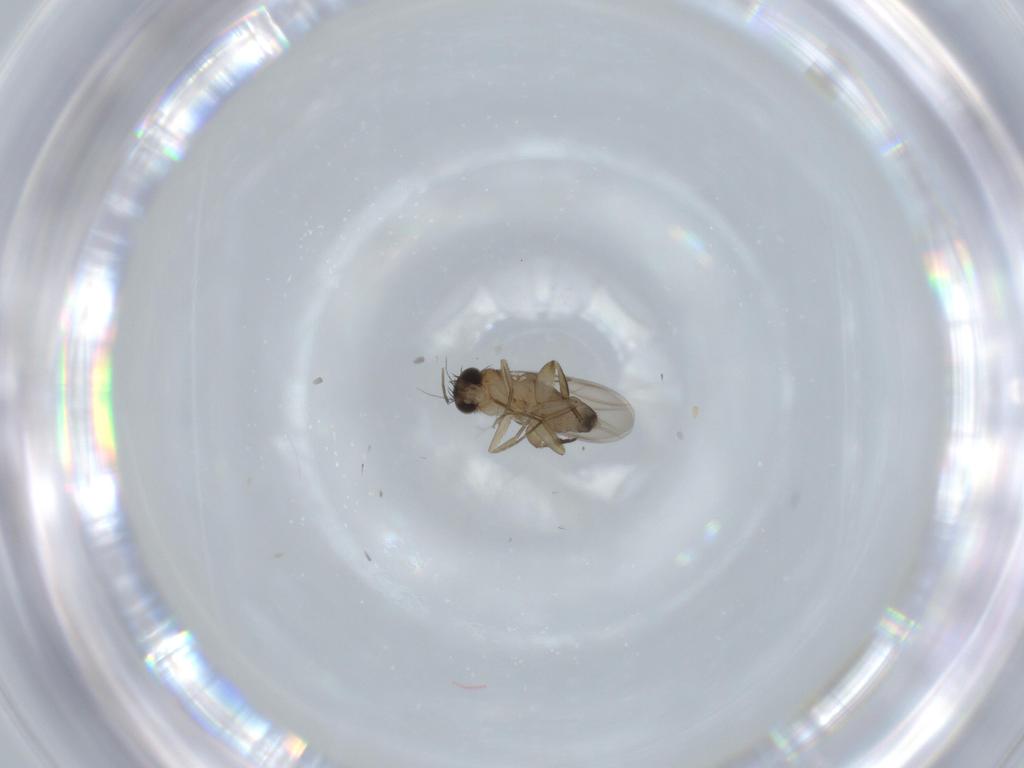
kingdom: Animalia
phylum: Arthropoda
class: Insecta
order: Diptera
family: Phoridae
